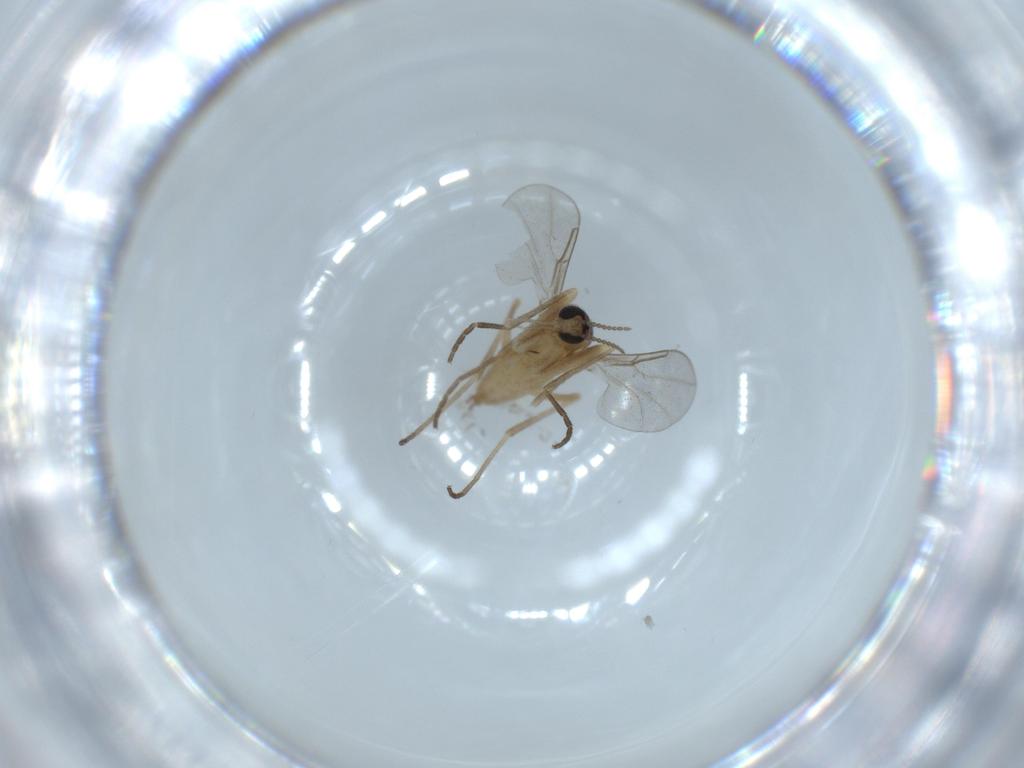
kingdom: Animalia
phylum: Arthropoda
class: Insecta
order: Diptera
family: Cecidomyiidae
